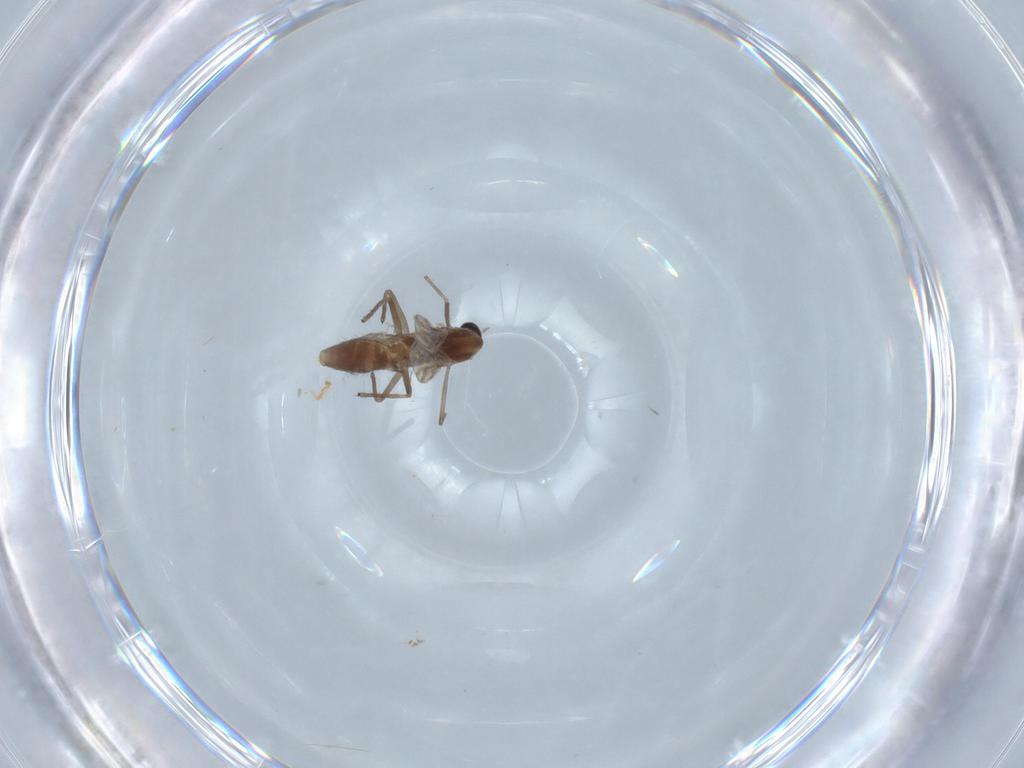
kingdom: Animalia
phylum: Arthropoda
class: Insecta
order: Diptera
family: Chironomidae
